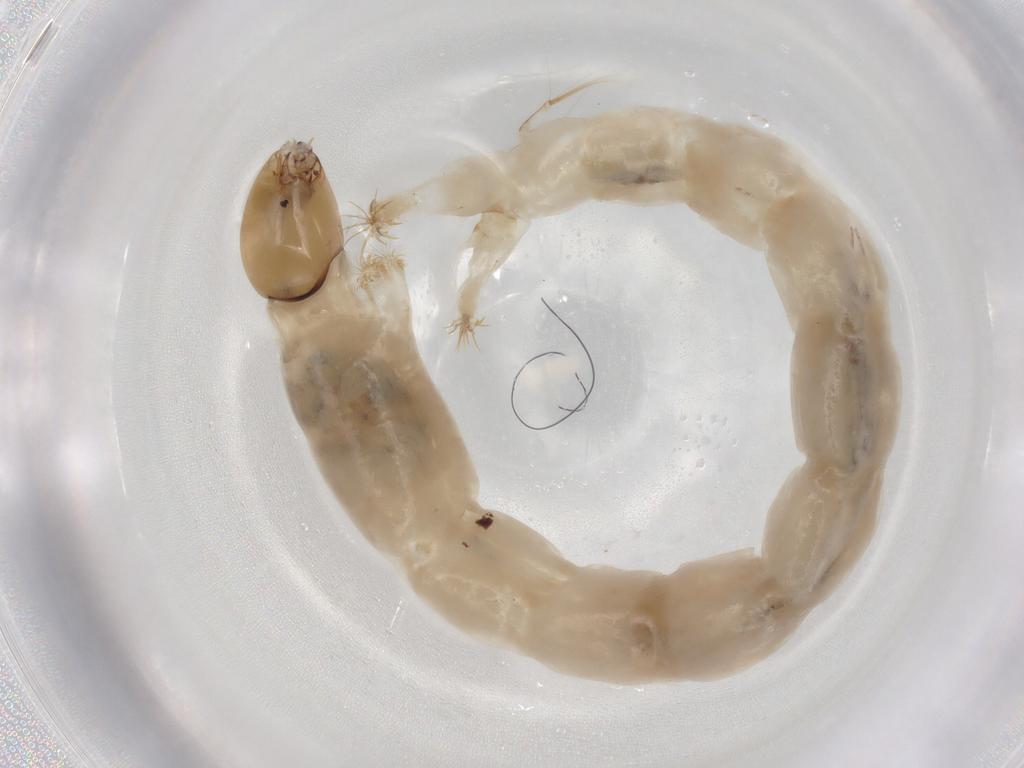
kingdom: Animalia
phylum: Arthropoda
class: Insecta
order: Diptera
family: Chironomidae
